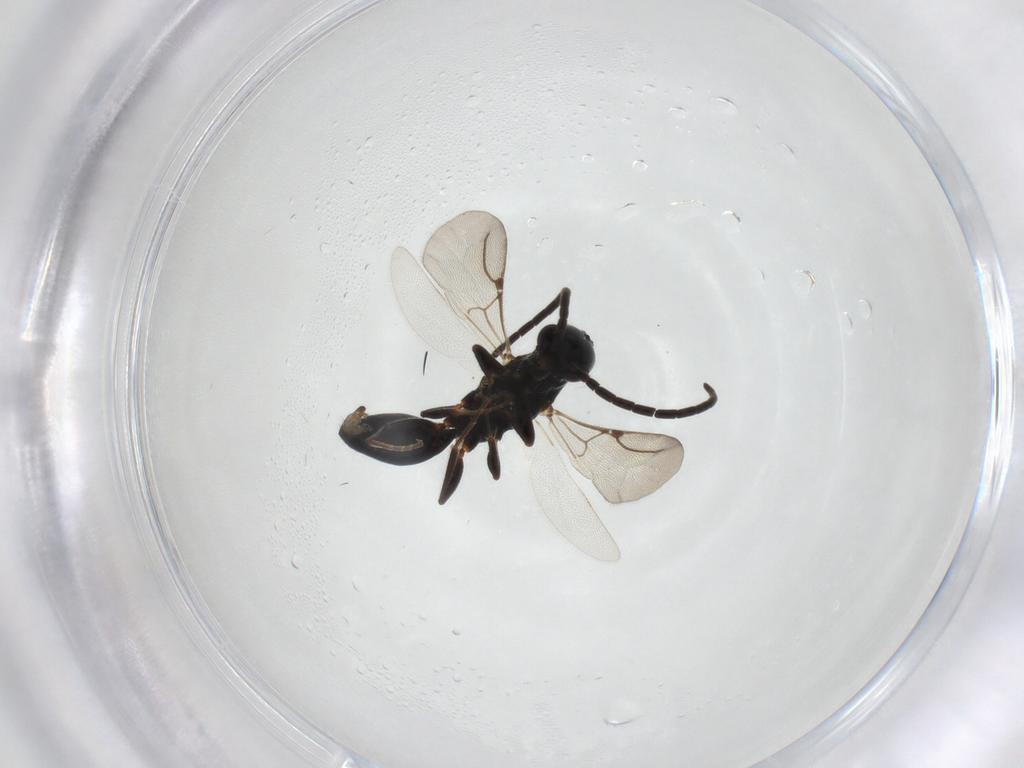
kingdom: Animalia
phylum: Arthropoda
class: Insecta
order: Hymenoptera
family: Bethylidae
